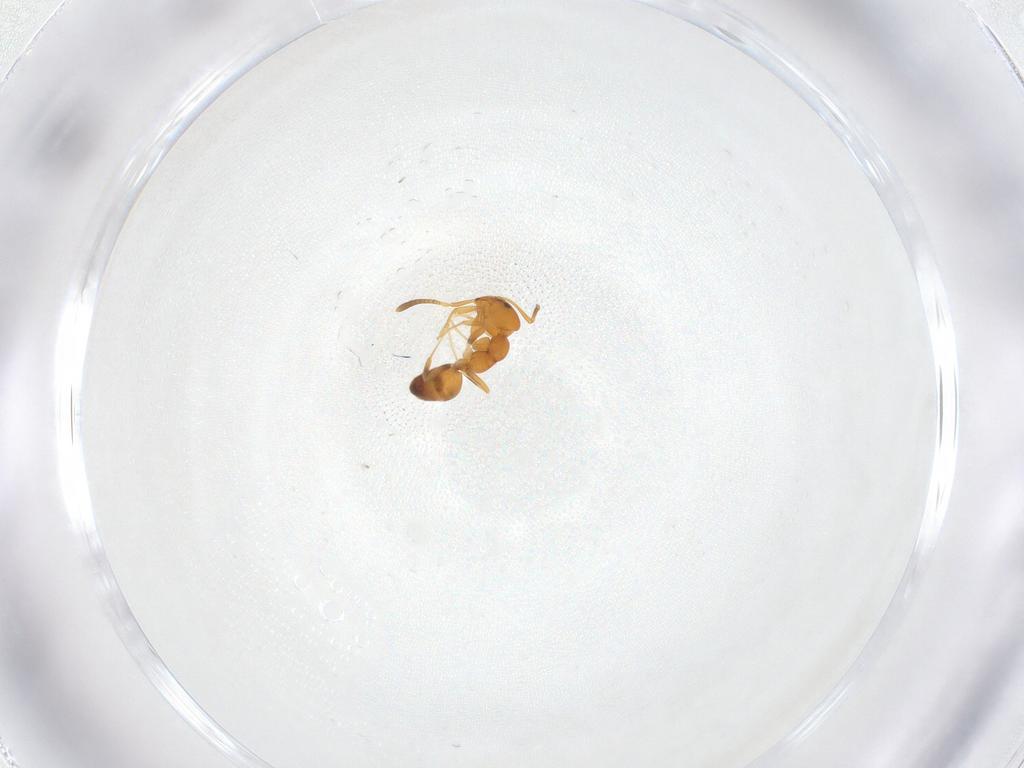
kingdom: Animalia
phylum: Arthropoda
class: Insecta
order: Hymenoptera
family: Formicidae
